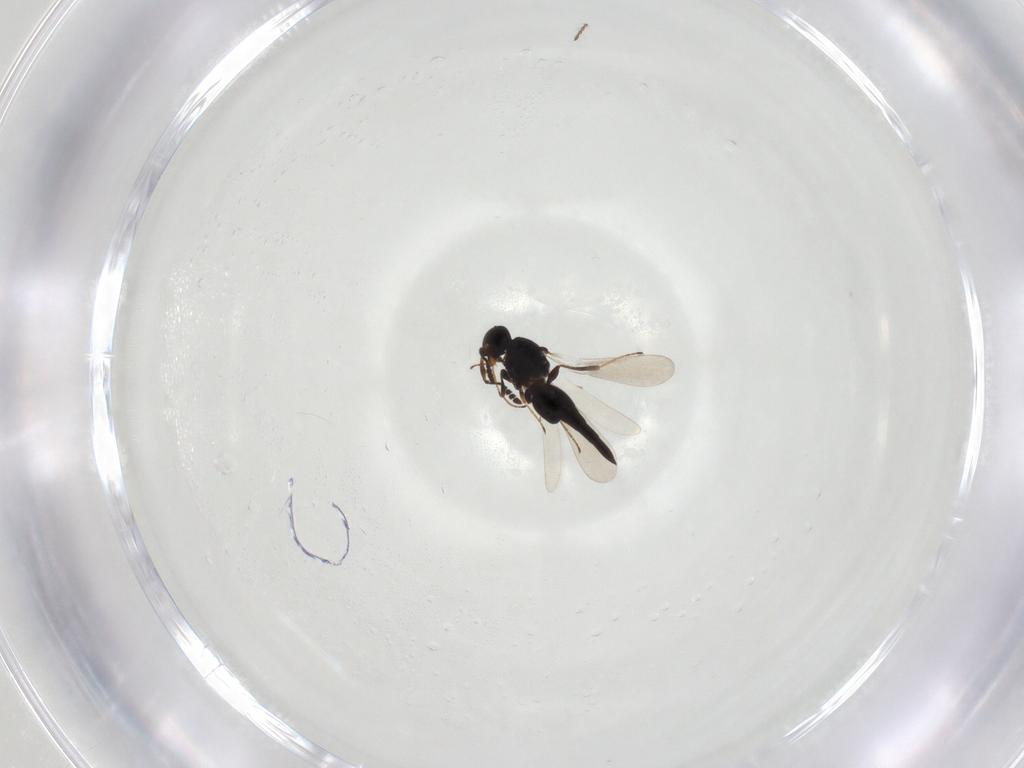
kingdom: Animalia
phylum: Arthropoda
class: Insecta
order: Hymenoptera
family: Platygastridae
